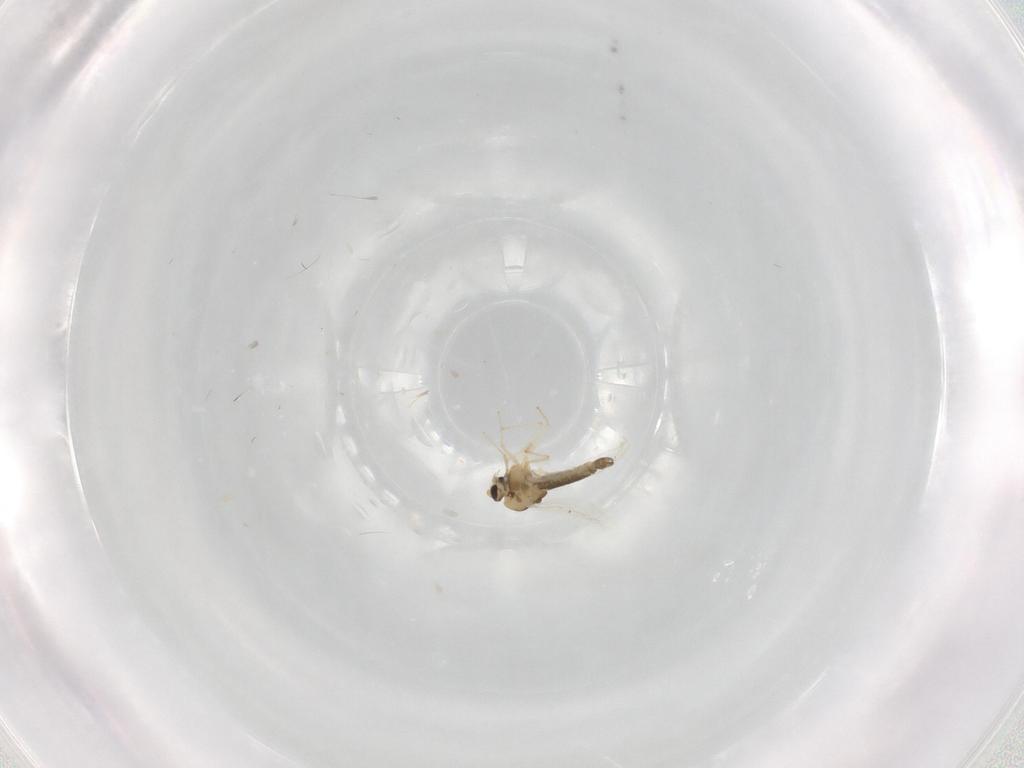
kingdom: Animalia
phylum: Arthropoda
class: Insecta
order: Diptera
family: Chironomidae
